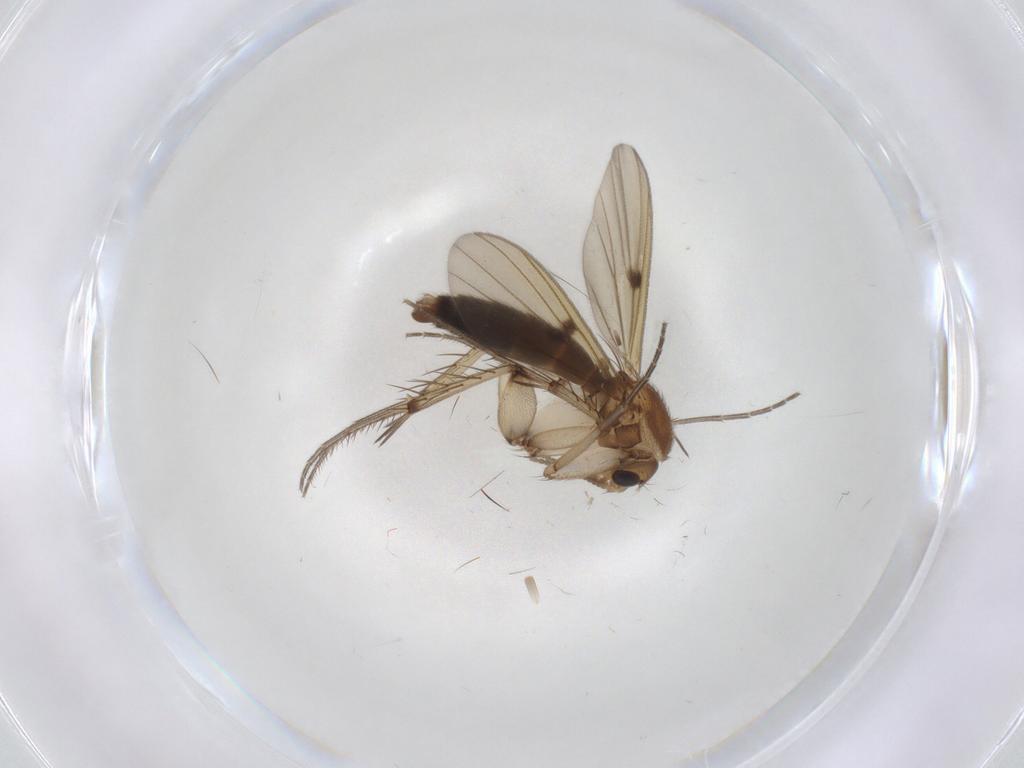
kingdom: Animalia
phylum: Arthropoda
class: Insecta
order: Diptera
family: Mycetophilidae
